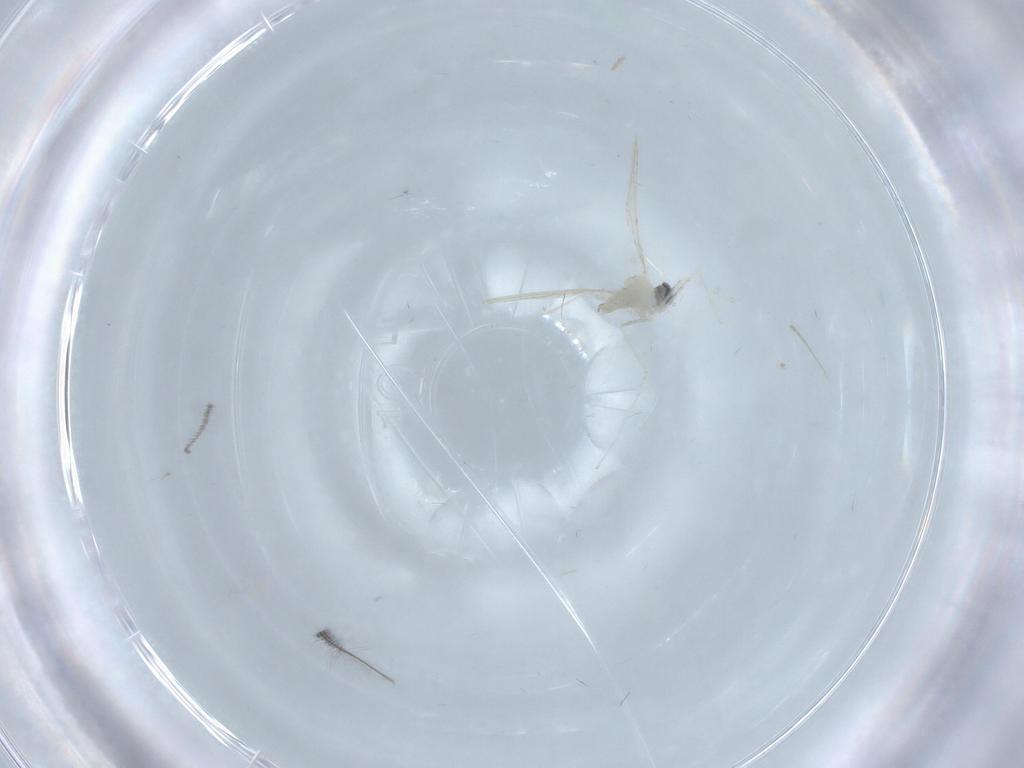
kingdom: Animalia
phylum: Arthropoda
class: Insecta
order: Diptera
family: Cecidomyiidae
